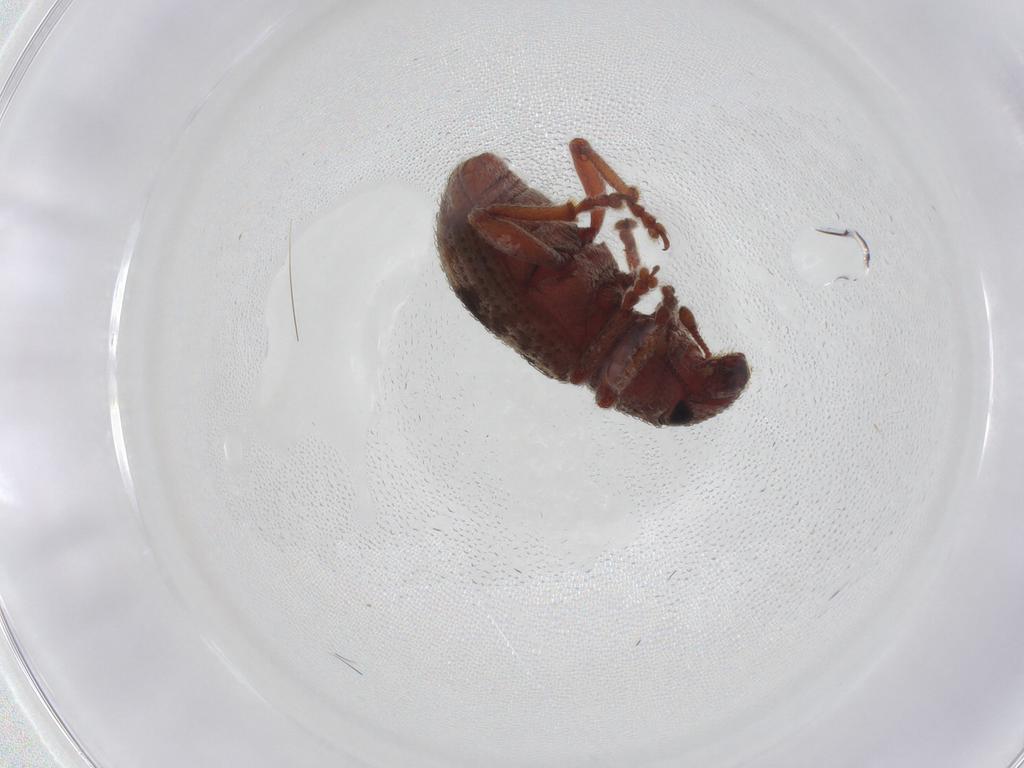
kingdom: Animalia
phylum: Arthropoda
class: Insecta
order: Coleoptera
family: Curculionidae
